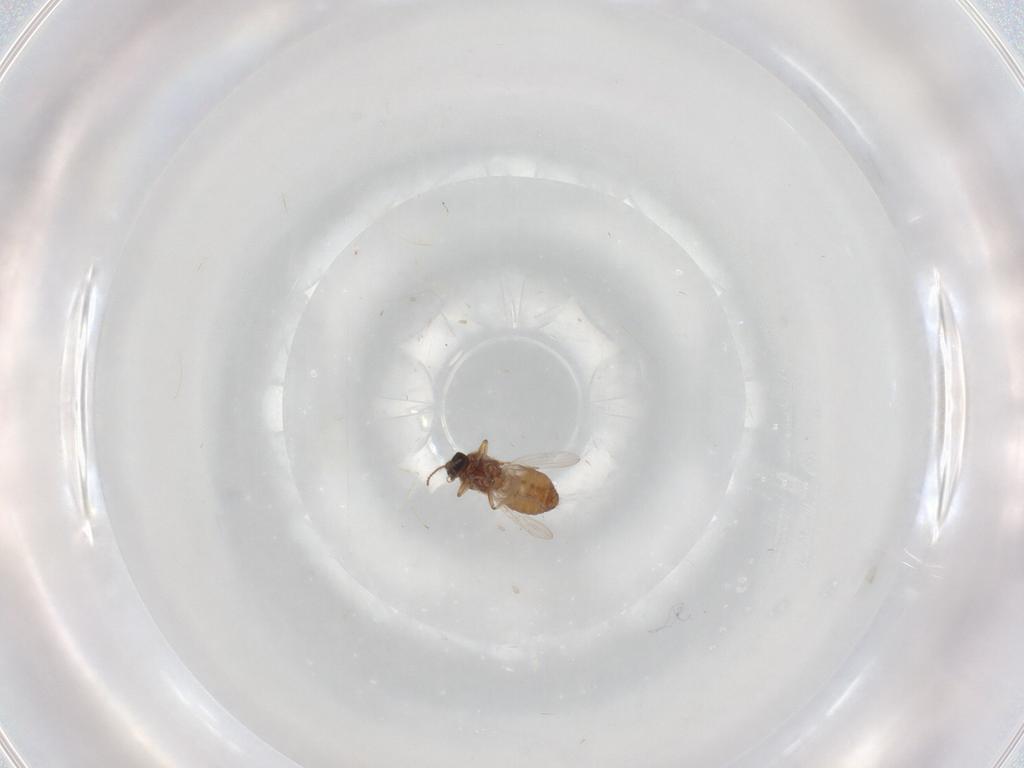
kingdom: Animalia
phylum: Arthropoda
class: Insecta
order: Diptera
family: Ceratopogonidae
